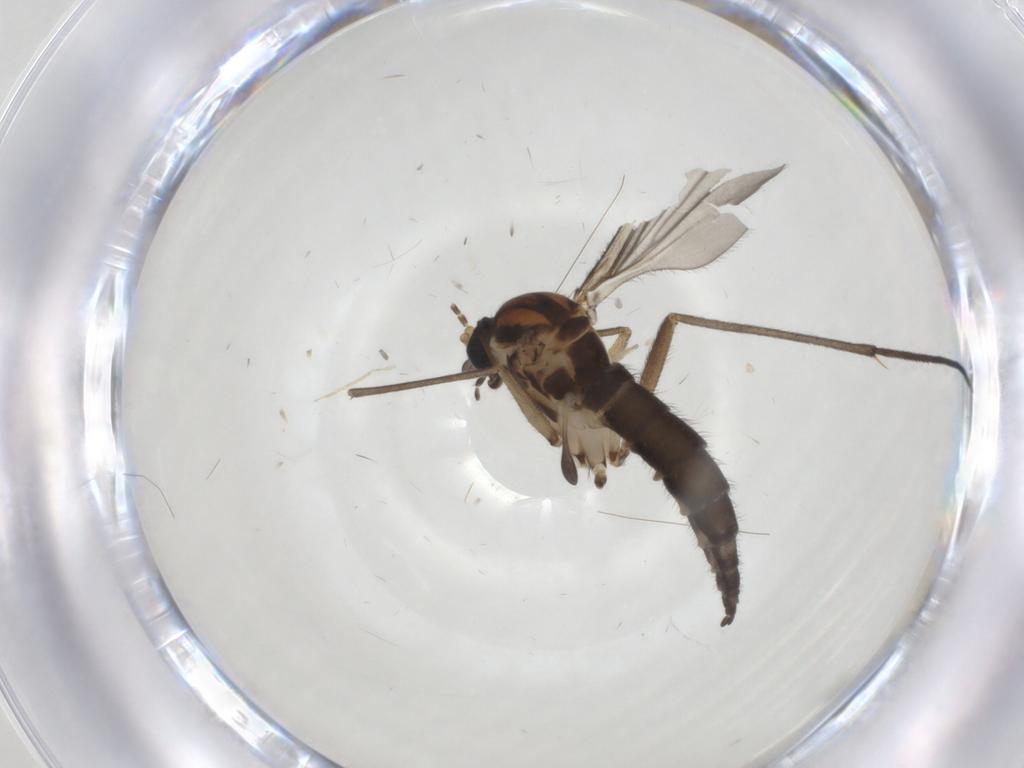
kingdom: Animalia
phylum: Arthropoda
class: Insecta
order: Diptera
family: Sciaridae
